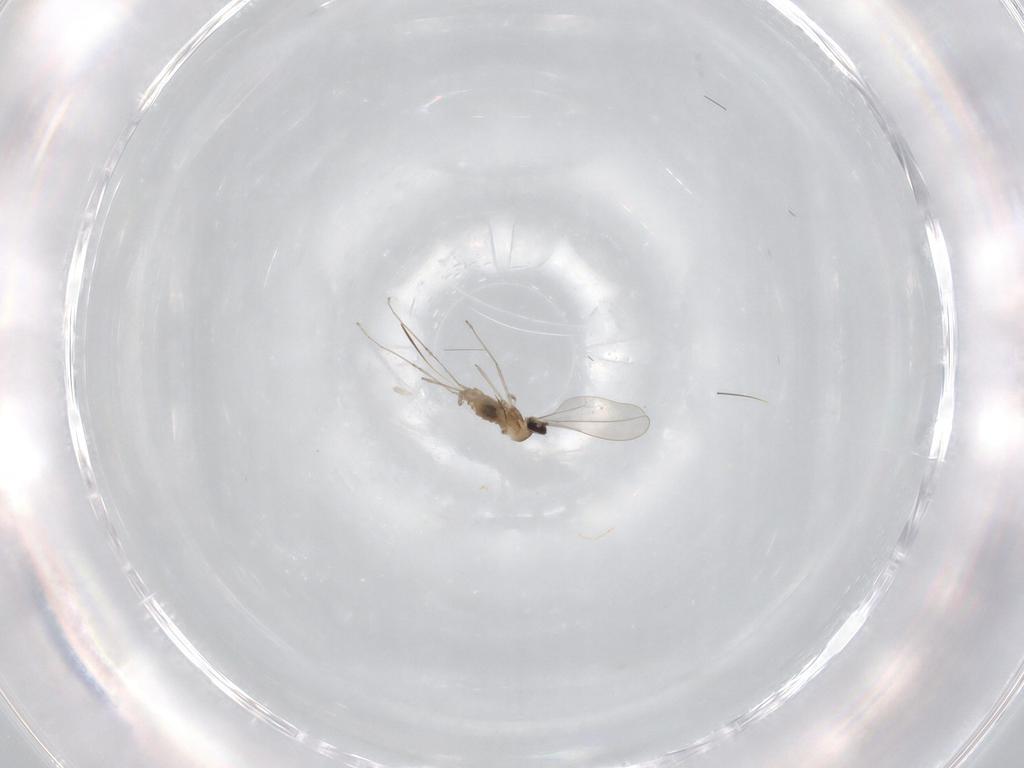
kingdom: Animalia
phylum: Arthropoda
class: Insecta
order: Diptera
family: Cecidomyiidae
